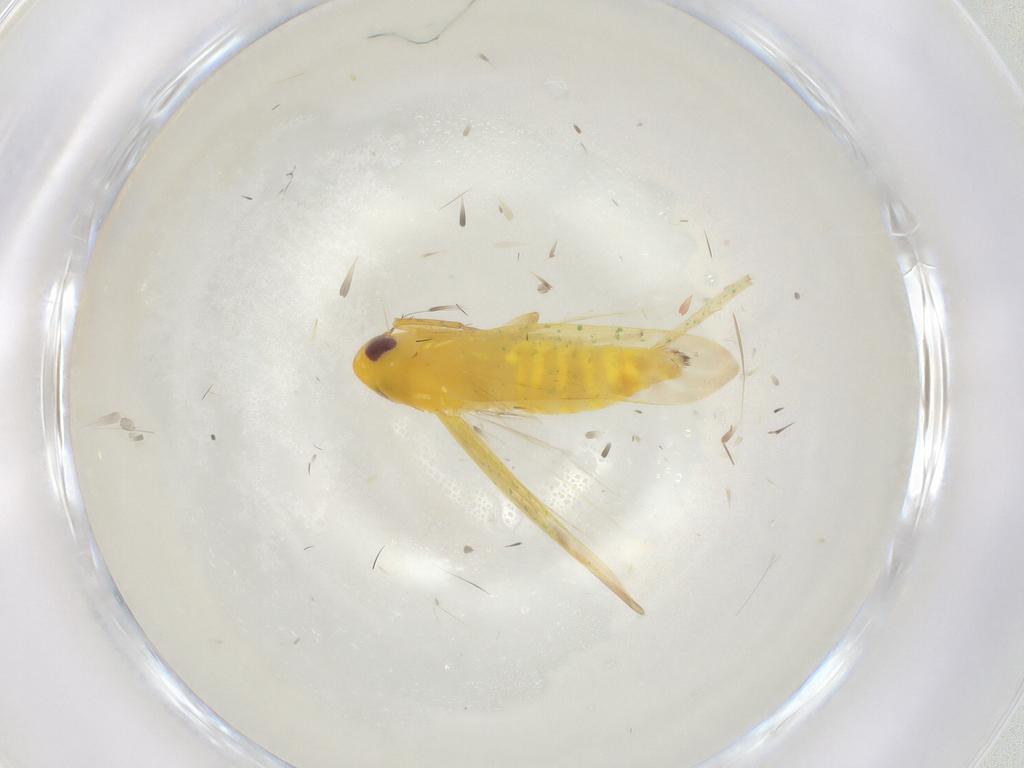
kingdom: Animalia
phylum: Arthropoda
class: Insecta
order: Hemiptera
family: Cicadellidae
